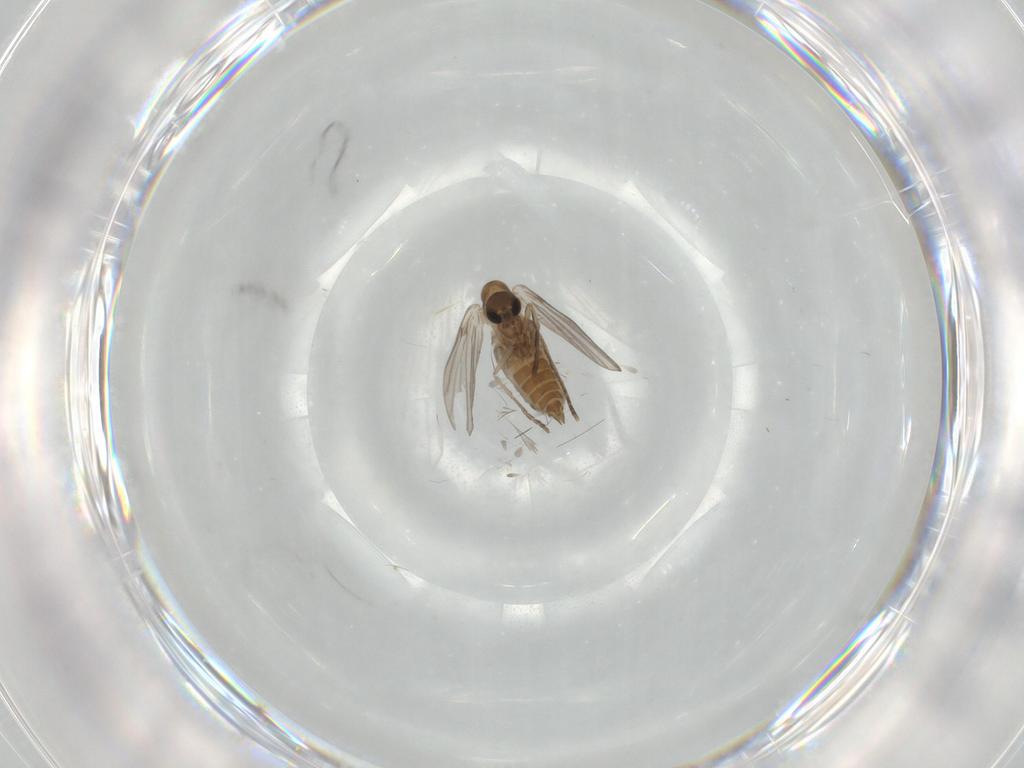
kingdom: Animalia
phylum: Arthropoda
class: Insecta
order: Diptera
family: Psychodidae
